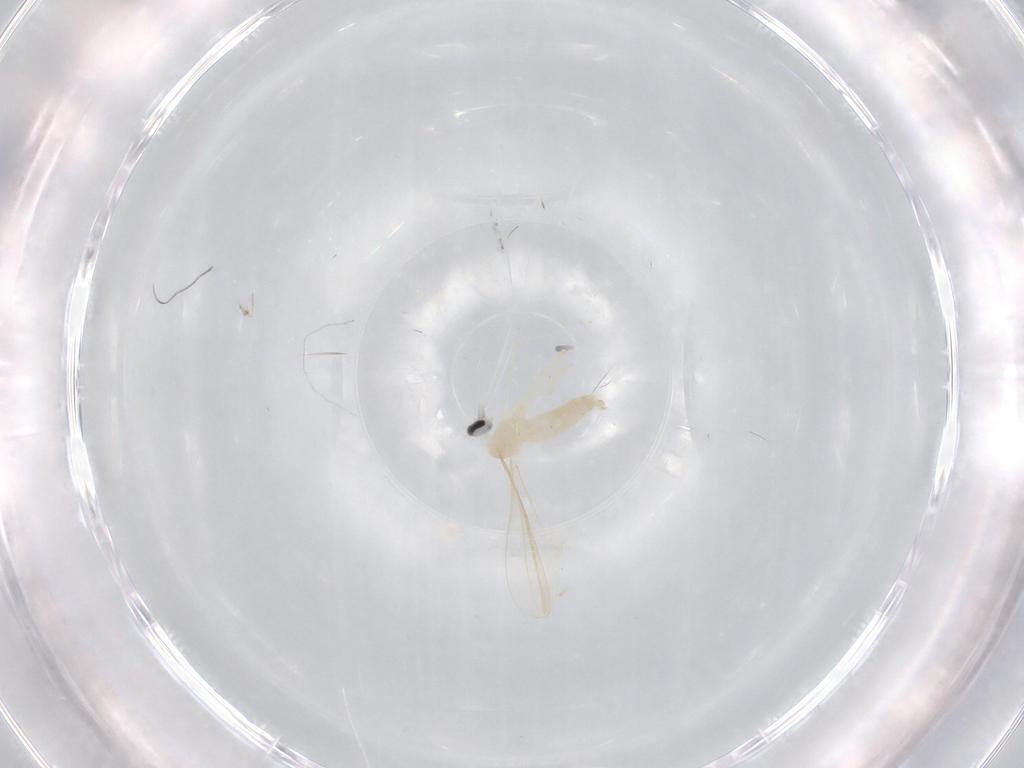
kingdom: Animalia
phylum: Arthropoda
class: Insecta
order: Diptera
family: Cecidomyiidae
